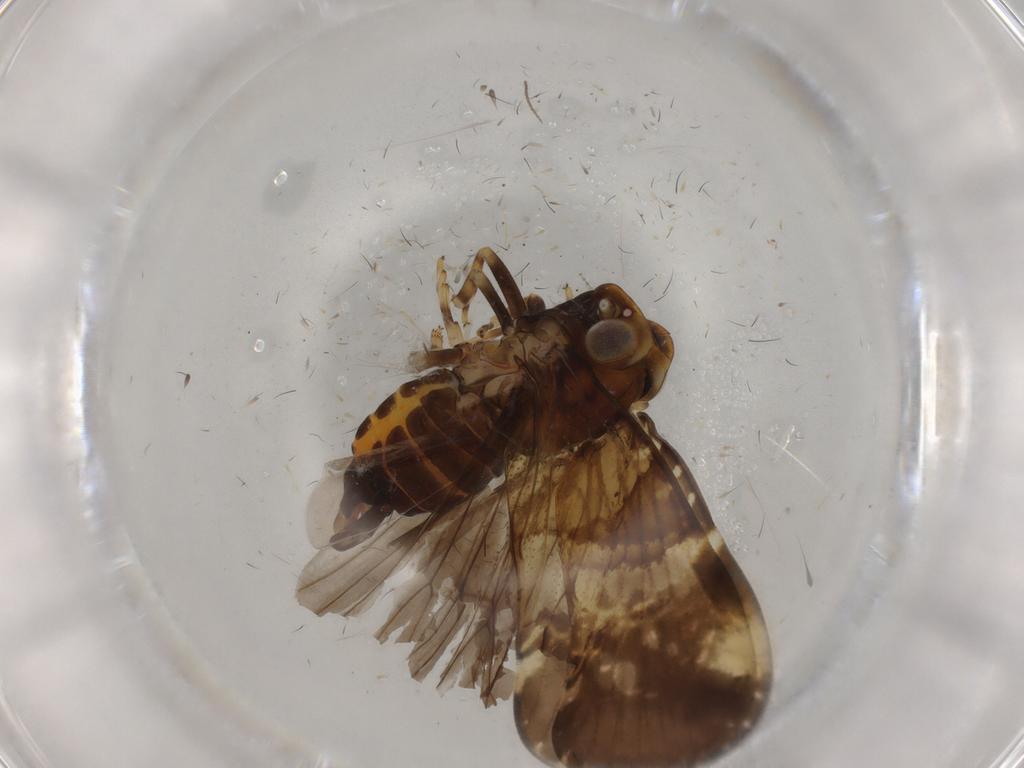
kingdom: Animalia
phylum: Arthropoda
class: Insecta
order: Hemiptera
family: Cixiidae
